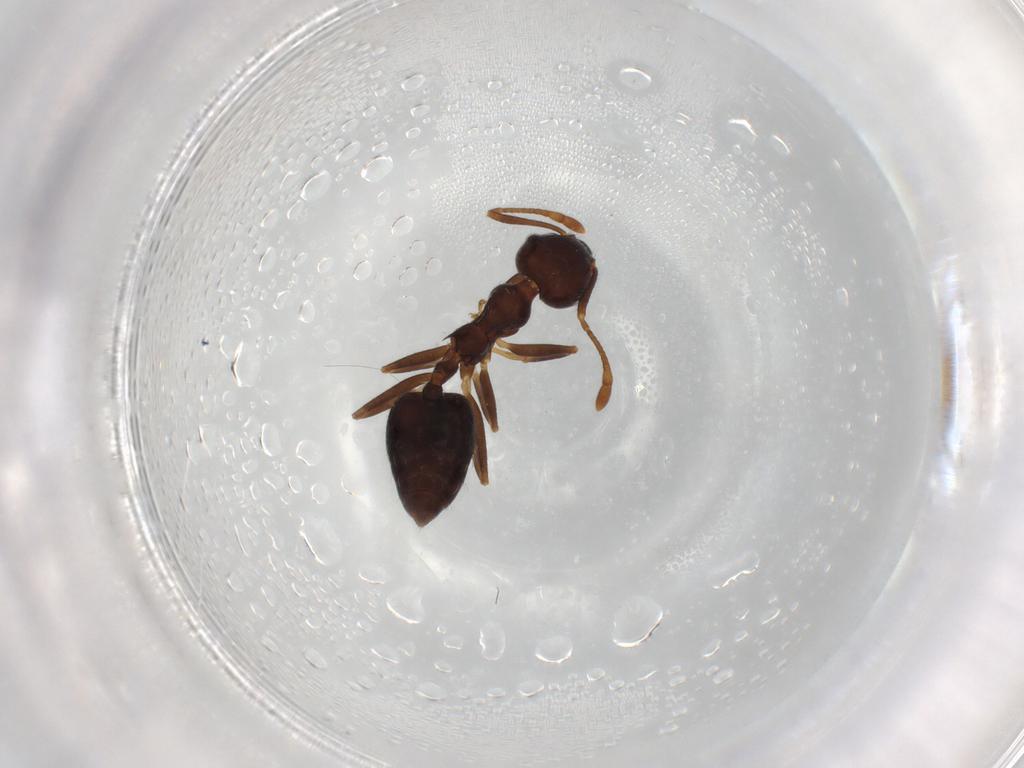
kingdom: Animalia
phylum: Arthropoda
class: Insecta
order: Hymenoptera
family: Formicidae
